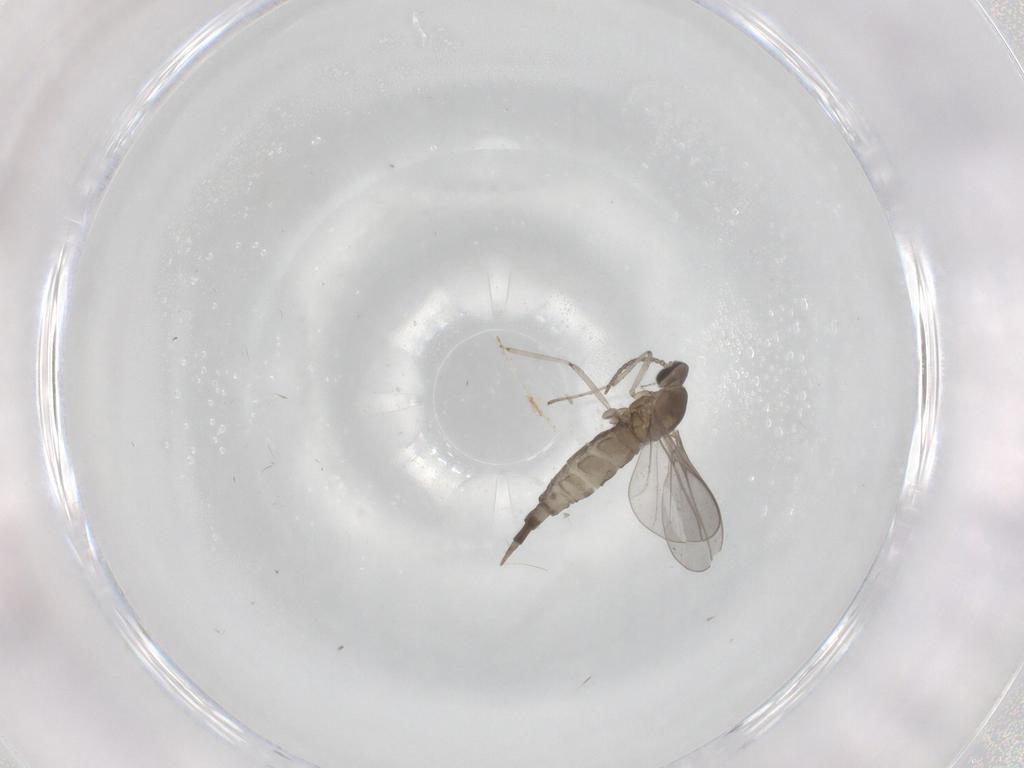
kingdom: Animalia
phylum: Arthropoda
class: Insecta
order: Diptera
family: Cecidomyiidae
